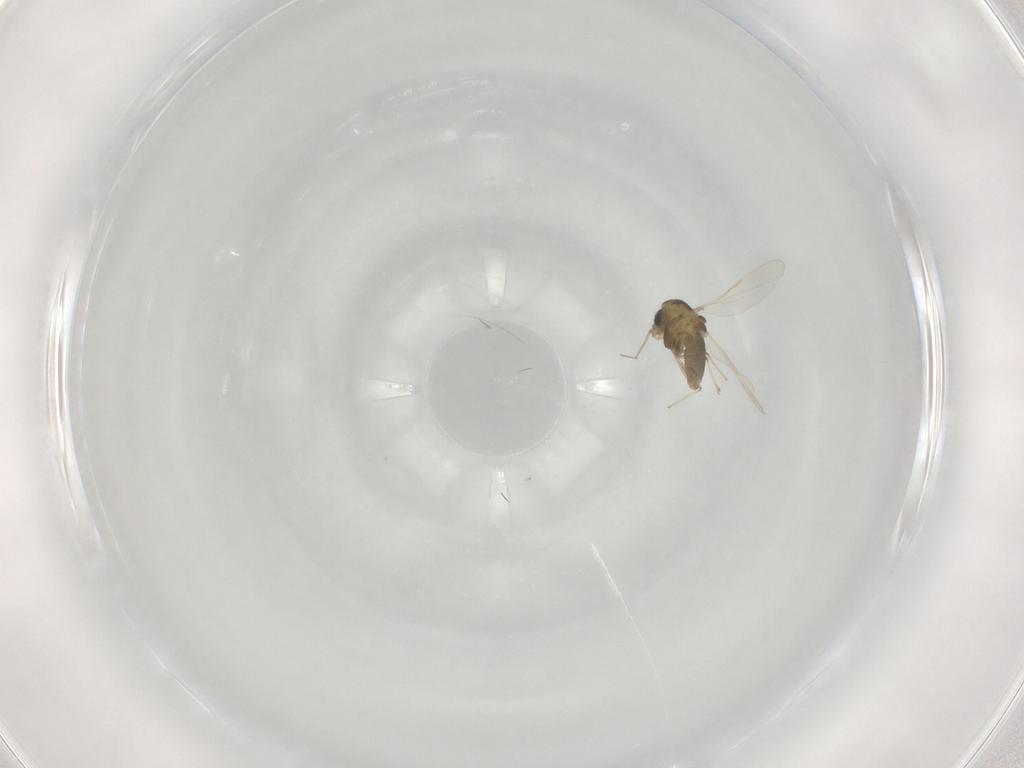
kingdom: Animalia
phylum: Arthropoda
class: Insecta
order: Diptera
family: Chironomidae
